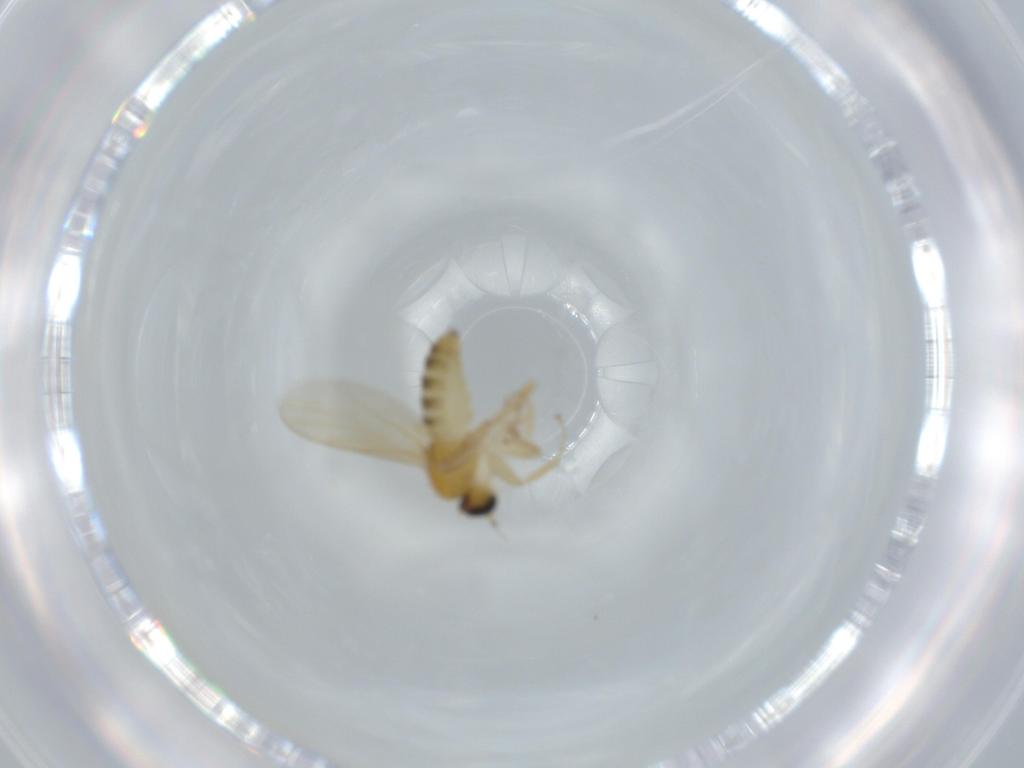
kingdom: Animalia
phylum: Arthropoda
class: Insecta
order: Diptera
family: Hybotidae
